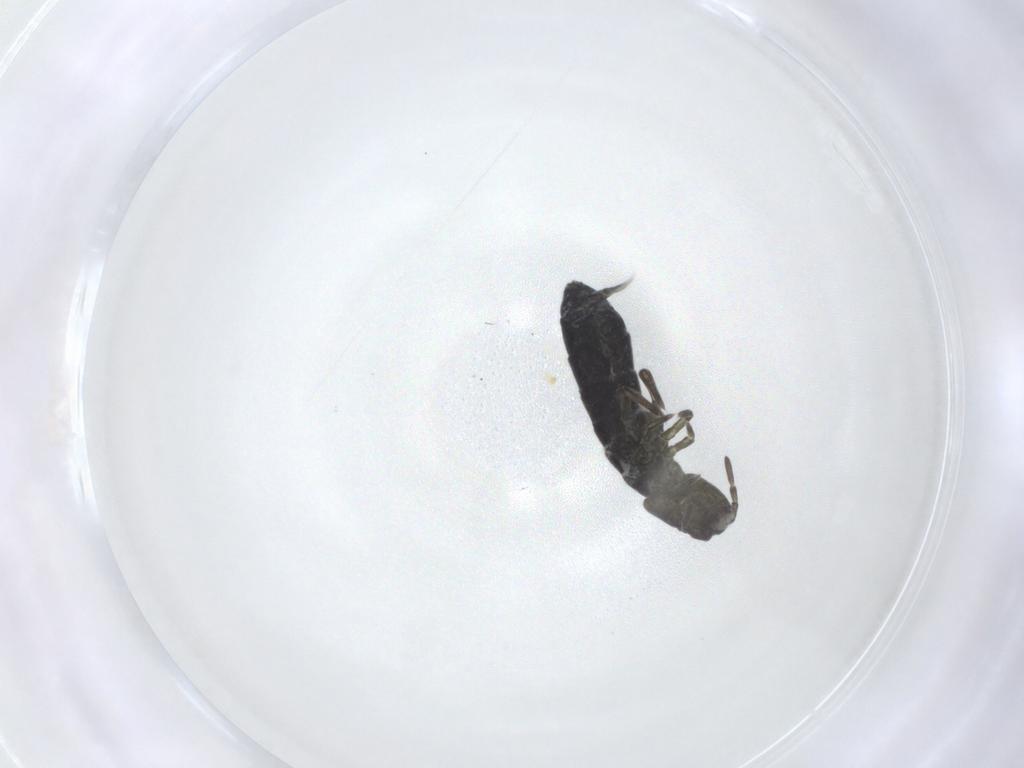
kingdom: Animalia
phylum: Arthropoda
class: Collembola
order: Entomobryomorpha
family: Isotomidae
